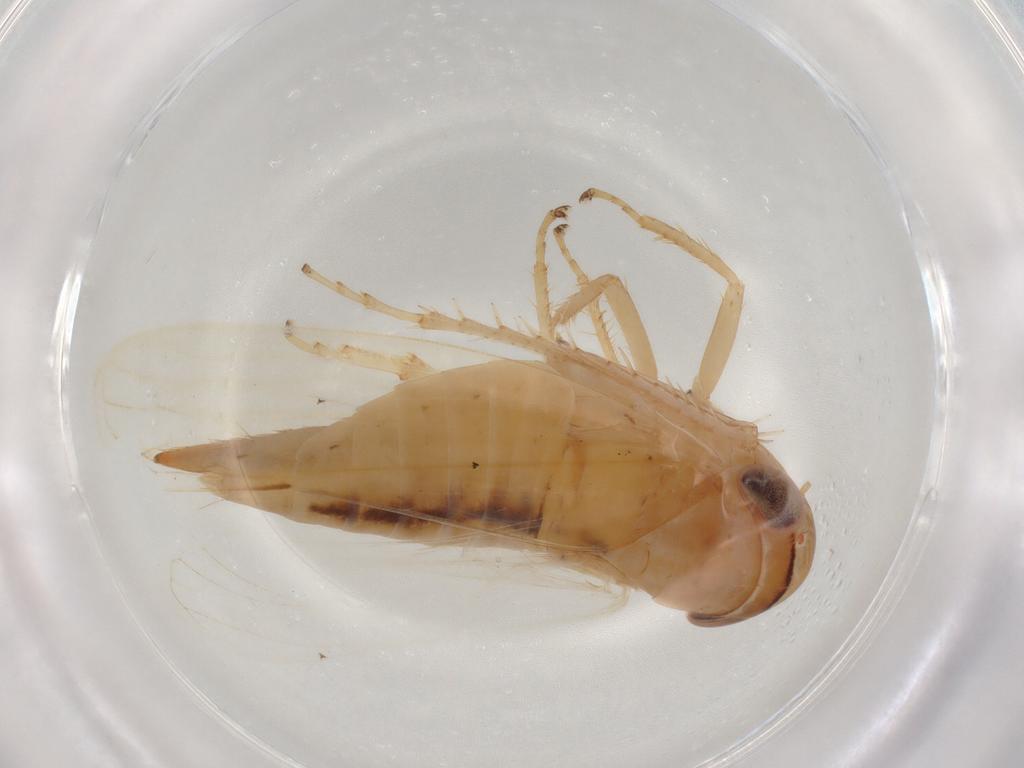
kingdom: Animalia
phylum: Arthropoda
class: Insecta
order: Hemiptera
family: Cicadellidae
